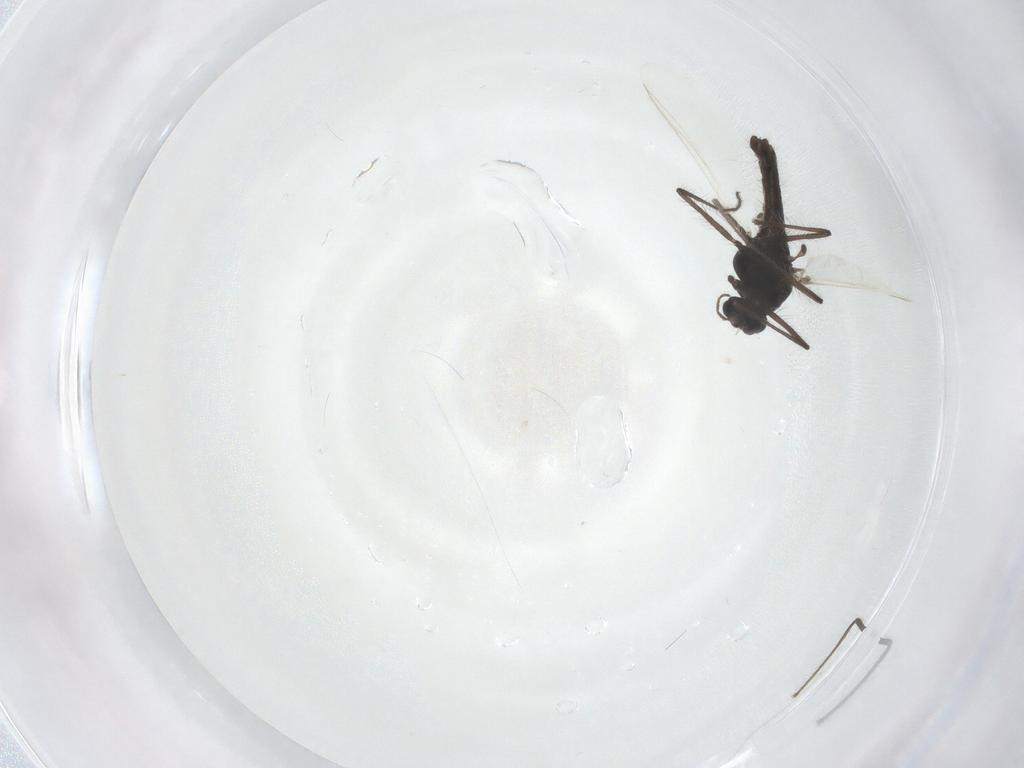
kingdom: Animalia
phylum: Arthropoda
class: Insecta
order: Diptera
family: Chironomidae
